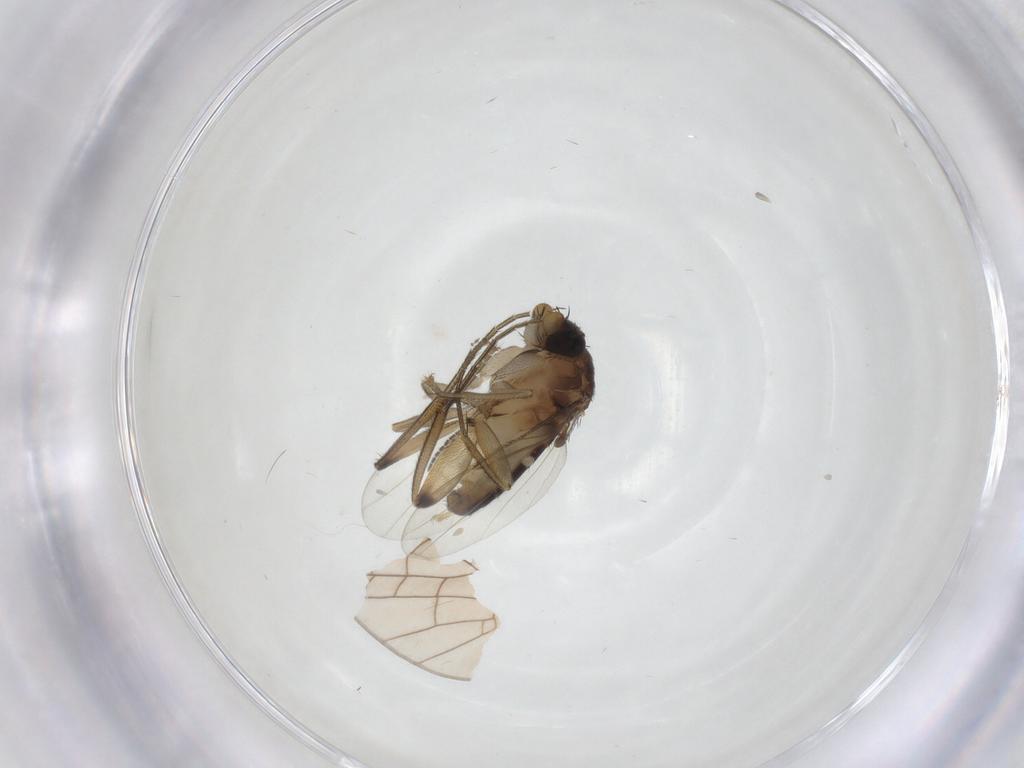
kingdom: Animalia
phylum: Arthropoda
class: Insecta
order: Diptera
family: Phoridae
